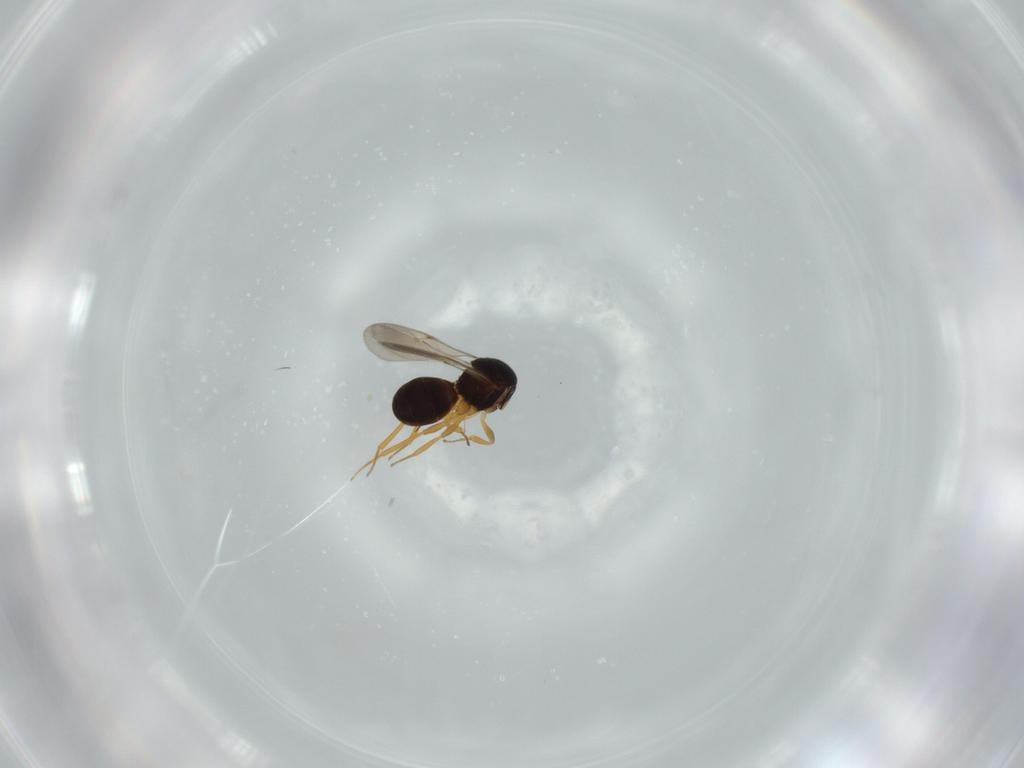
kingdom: Animalia
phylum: Arthropoda
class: Insecta
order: Hymenoptera
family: Scelionidae
